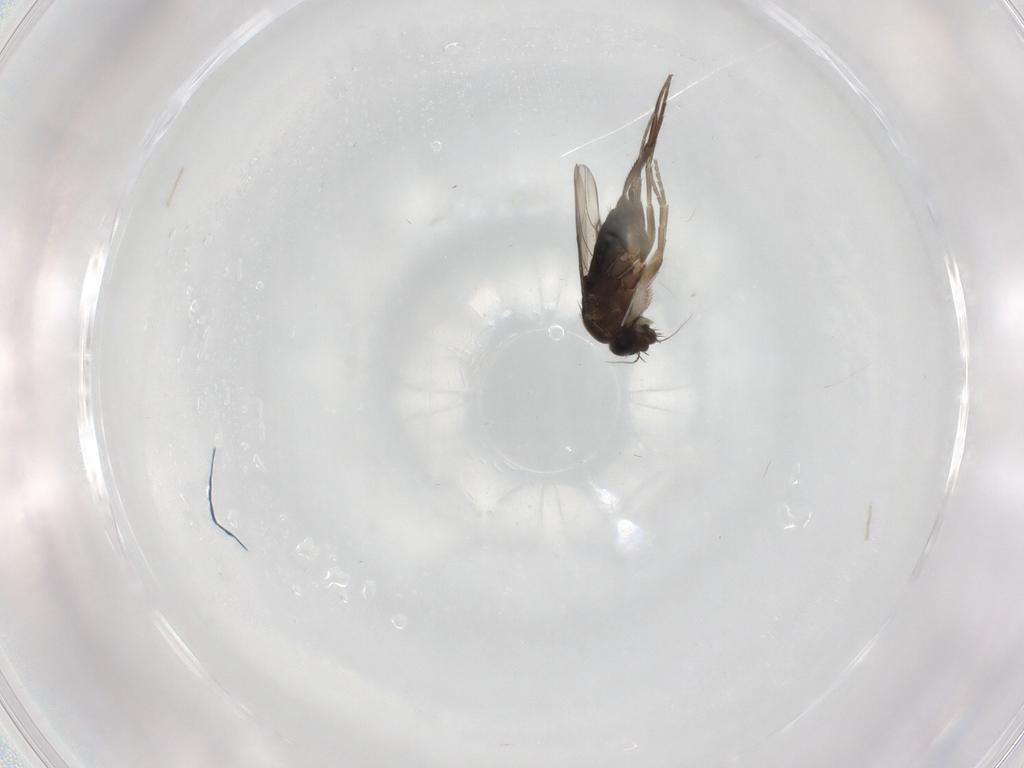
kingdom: Animalia
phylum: Arthropoda
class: Insecta
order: Diptera
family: Phoridae
